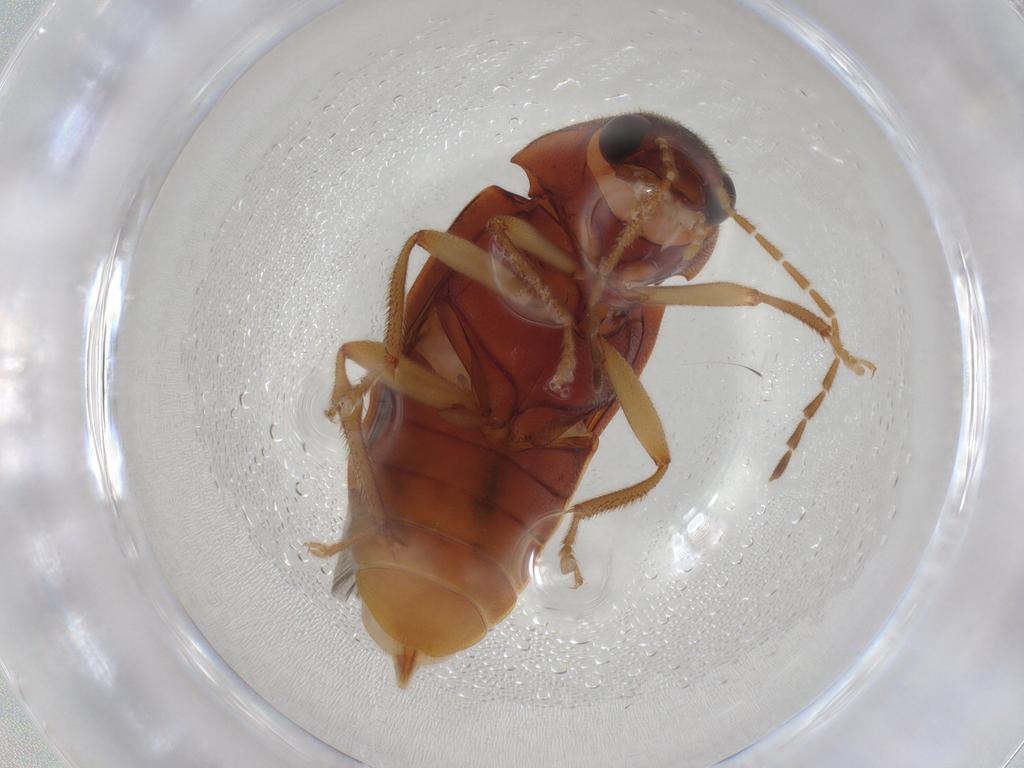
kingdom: Animalia
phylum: Arthropoda
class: Insecta
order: Coleoptera
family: Ptilodactylidae
